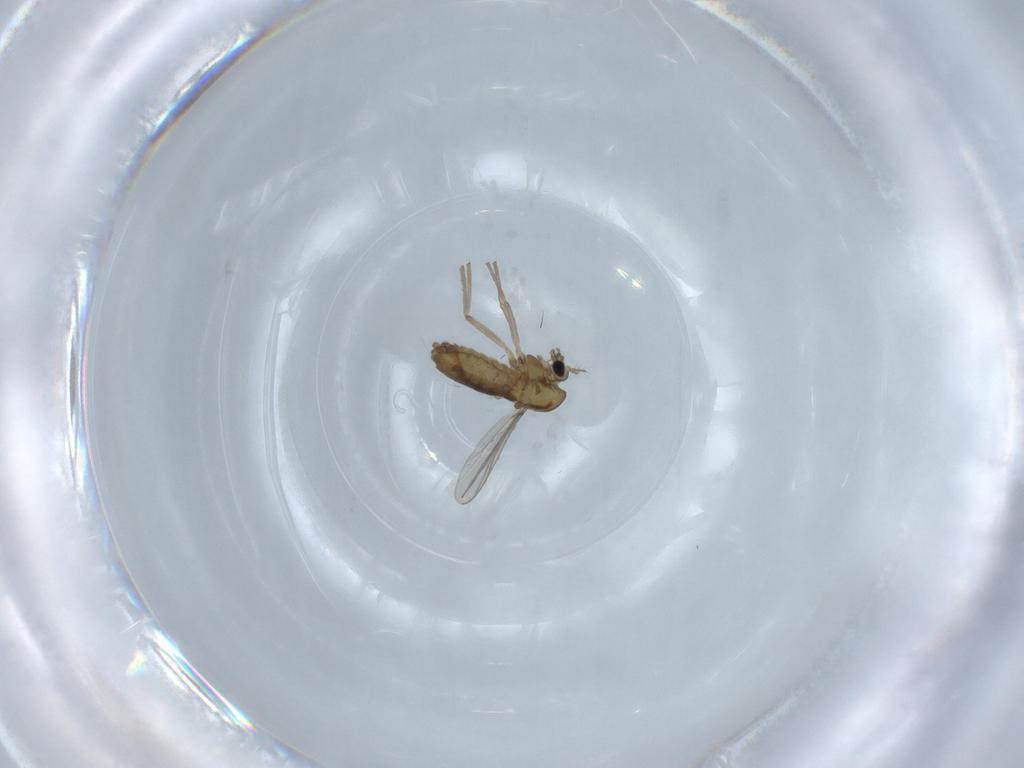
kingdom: Animalia
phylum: Arthropoda
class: Insecta
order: Diptera
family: Chironomidae
